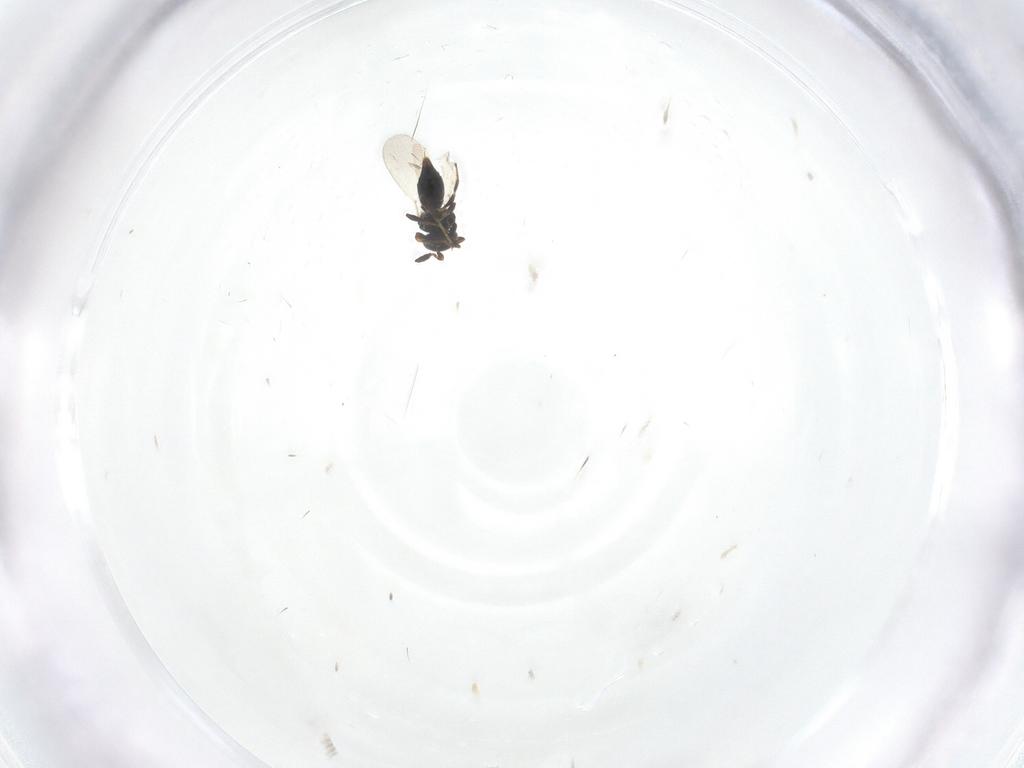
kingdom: Animalia
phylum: Arthropoda
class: Insecta
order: Hymenoptera
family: Platygastridae
